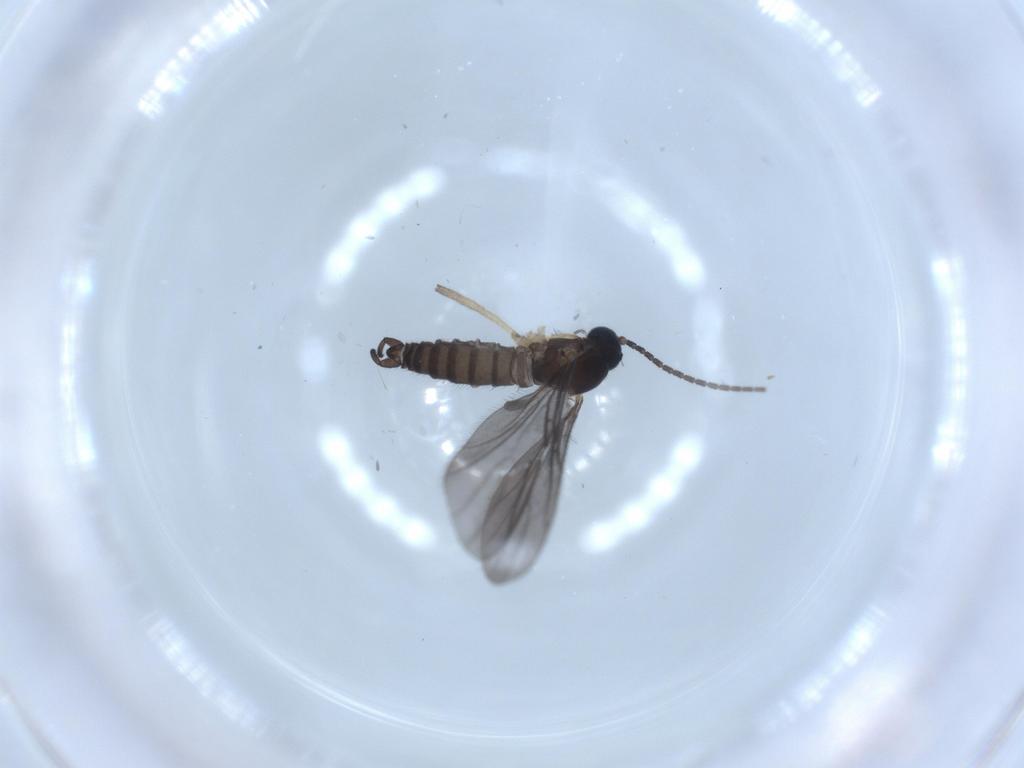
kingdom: Animalia
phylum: Arthropoda
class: Insecta
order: Diptera
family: Sciaridae
